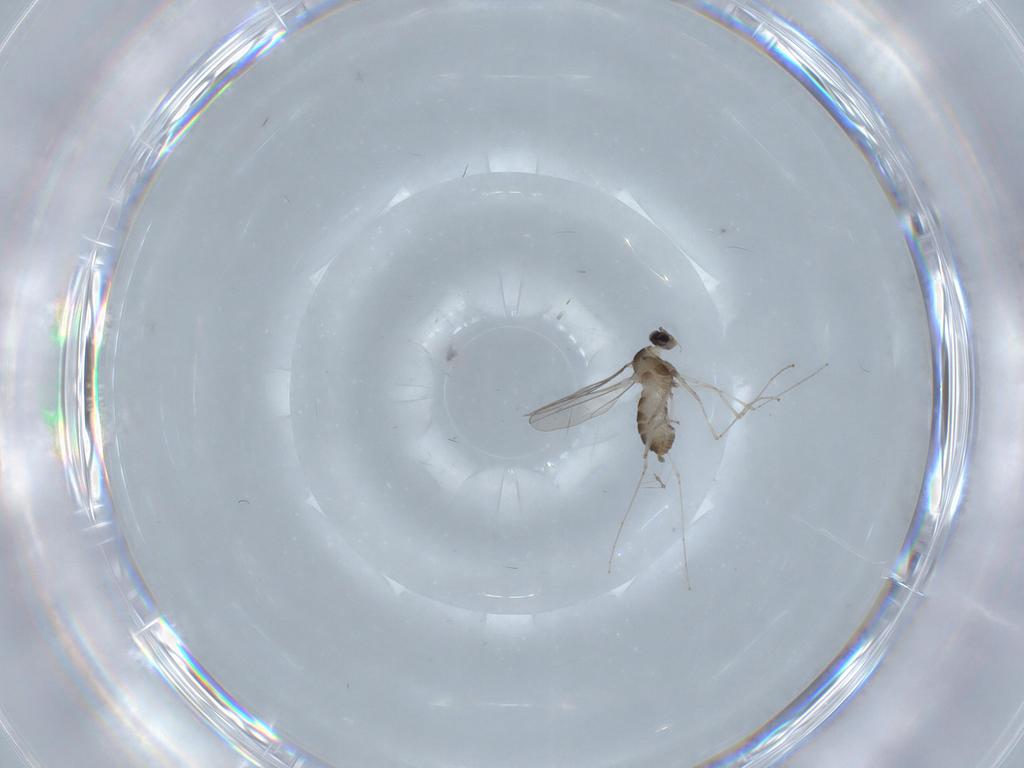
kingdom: Animalia
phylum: Arthropoda
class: Insecta
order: Diptera
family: Cecidomyiidae
